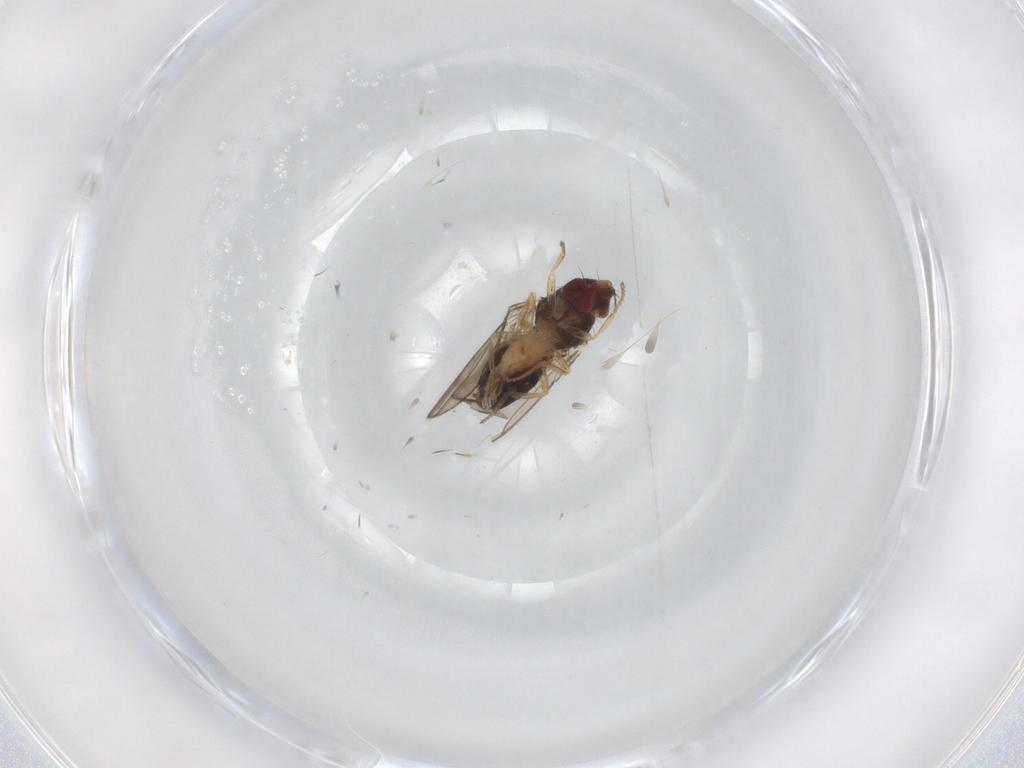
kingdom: Animalia
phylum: Arthropoda
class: Insecta
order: Diptera
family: Drosophilidae
